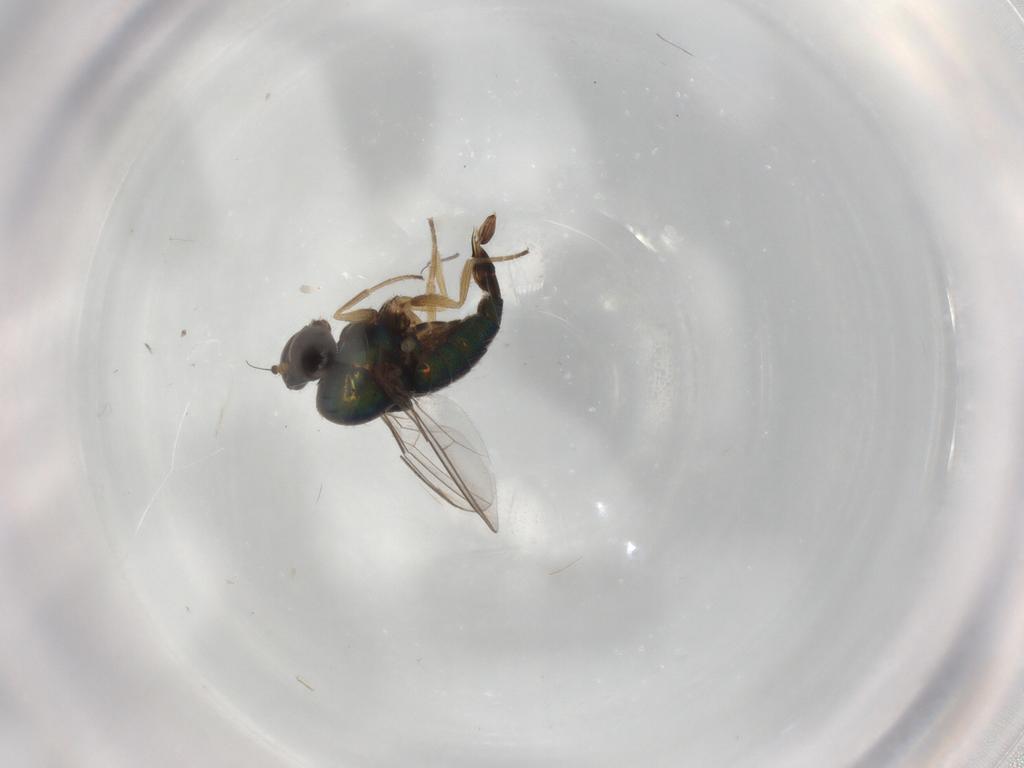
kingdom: Animalia
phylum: Arthropoda
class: Insecta
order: Diptera
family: Dolichopodidae
